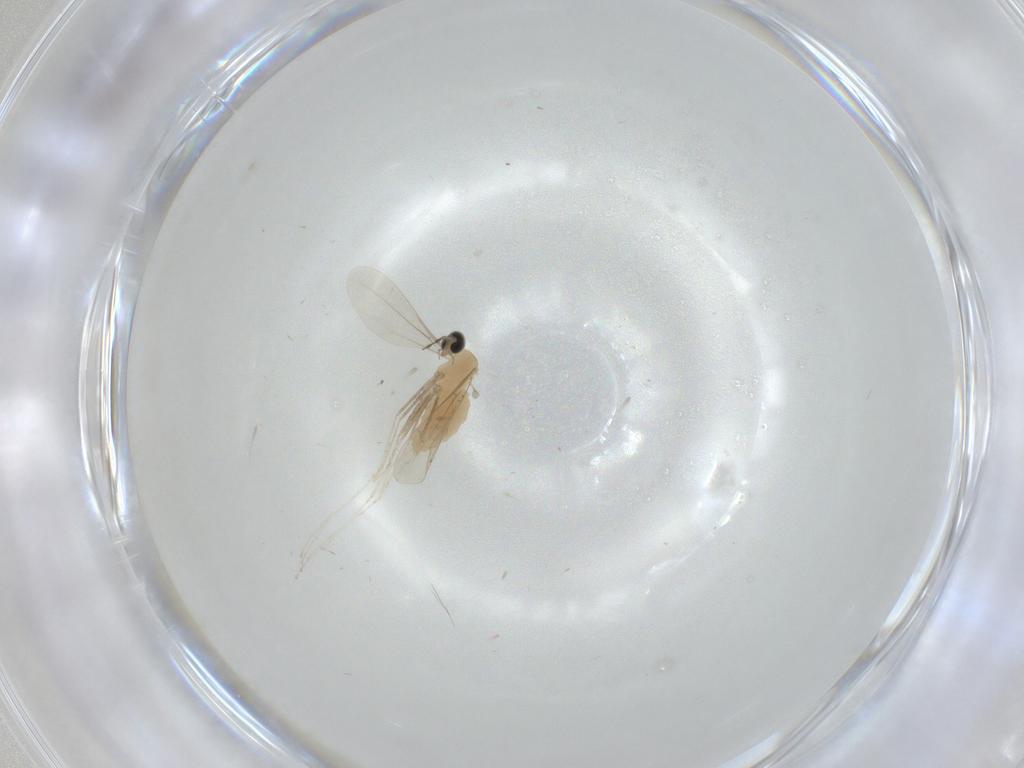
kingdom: Animalia
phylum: Arthropoda
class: Insecta
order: Diptera
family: Cecidomyiidae
